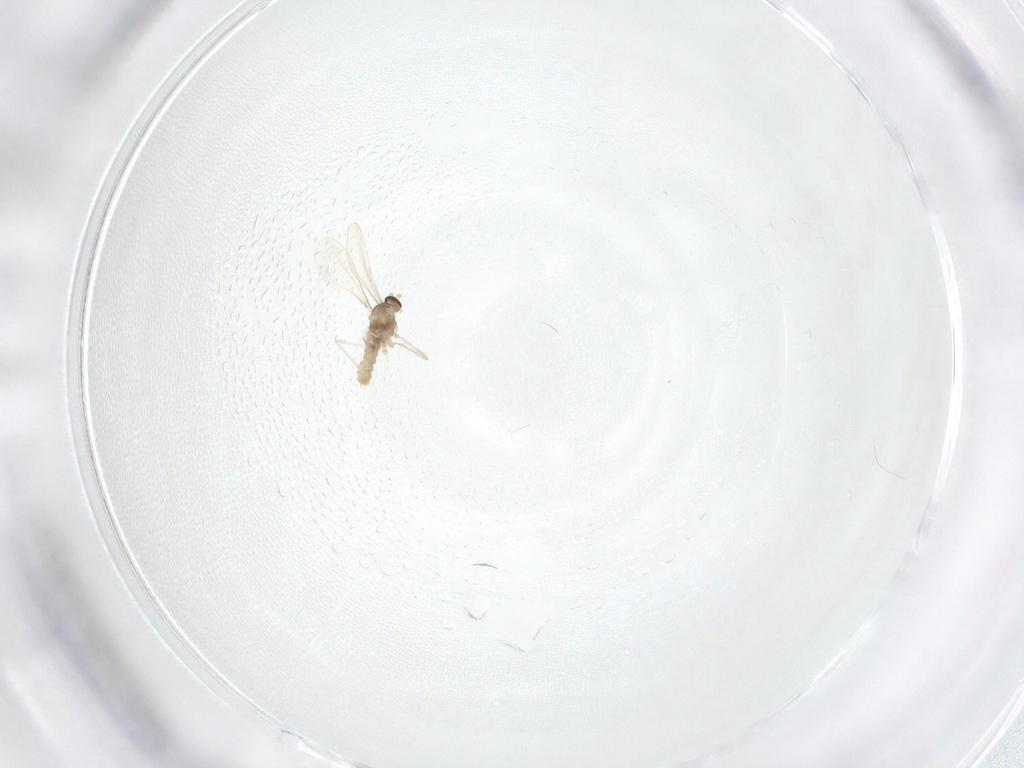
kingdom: Animalia
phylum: Arthropoda
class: Insecta
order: Diptera
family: Cecidomyiidae
